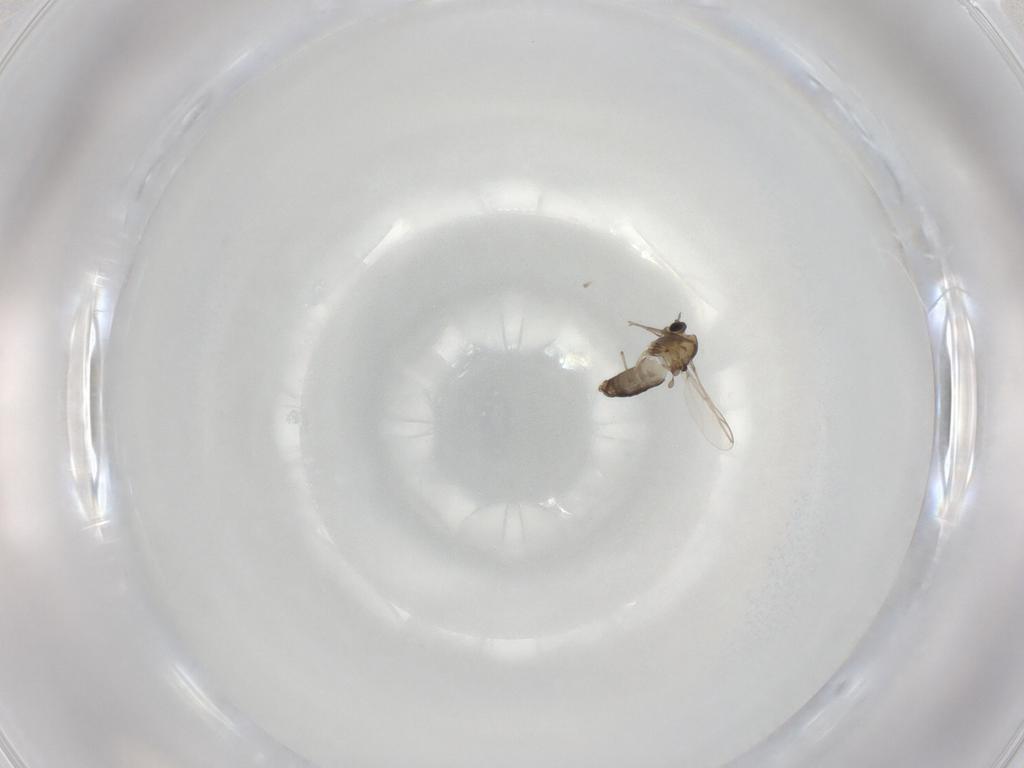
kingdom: Animalia
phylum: Arthropoda
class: Insecta
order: Diptera
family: Chironomidae
